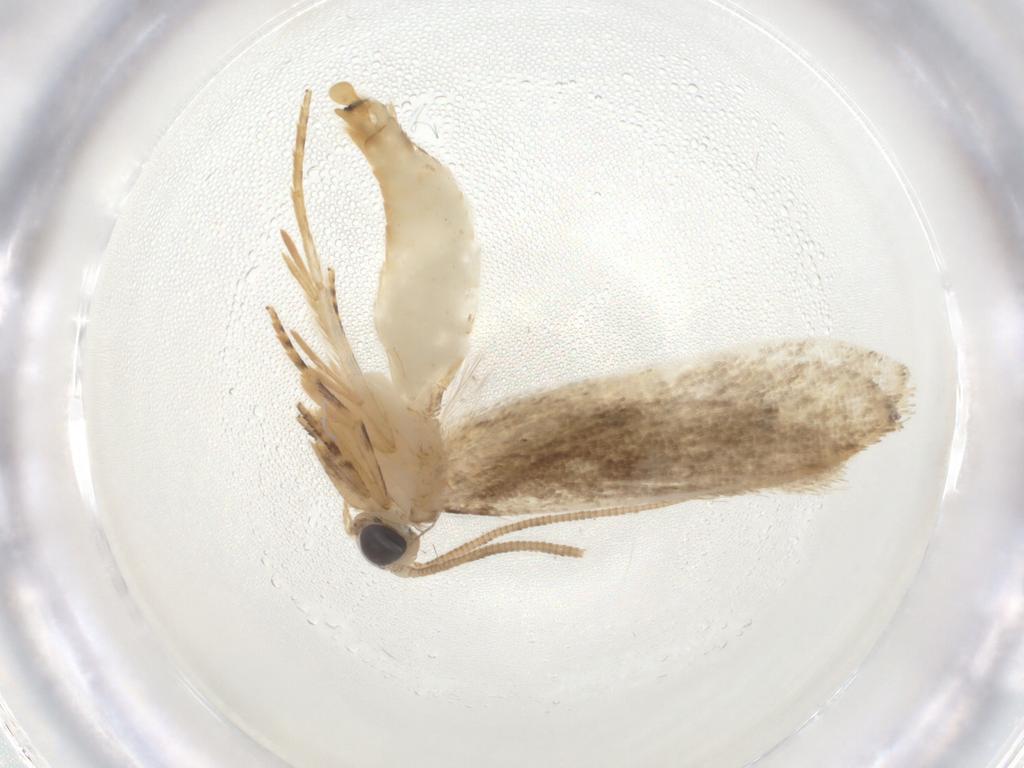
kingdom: Animalia
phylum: Arthropoda
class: Insecta
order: Lepidoptera
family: Tineidae
